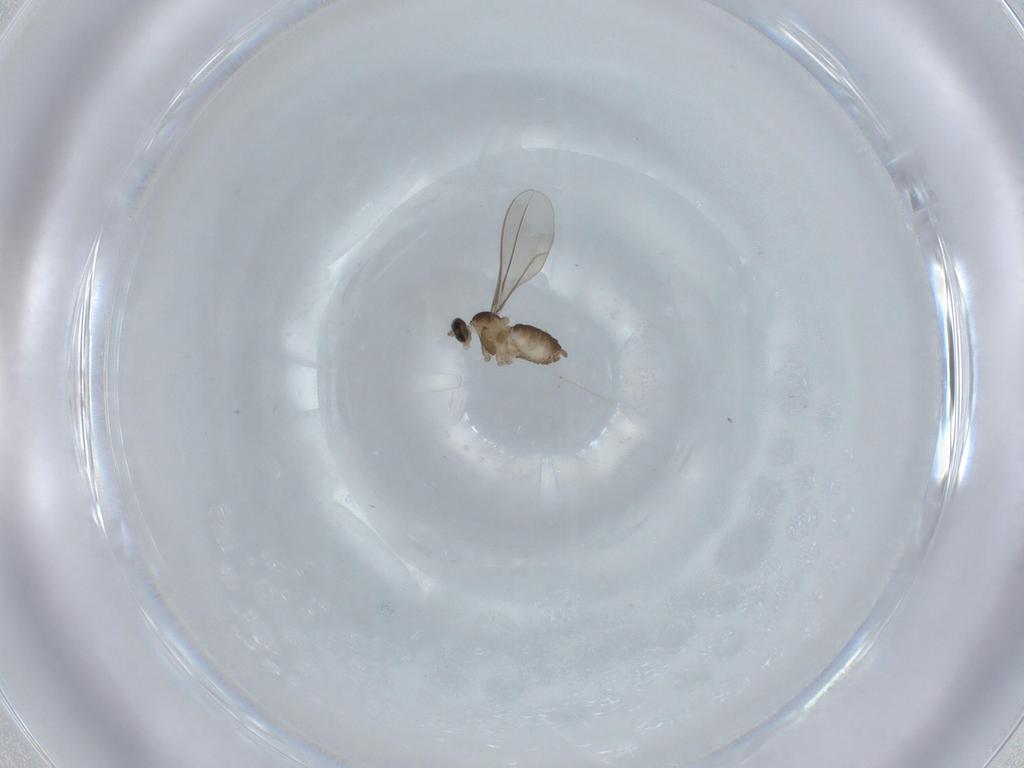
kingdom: Animalia
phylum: Arthropoda
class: Insecta
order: Diptera
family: Cecidomyiidae
